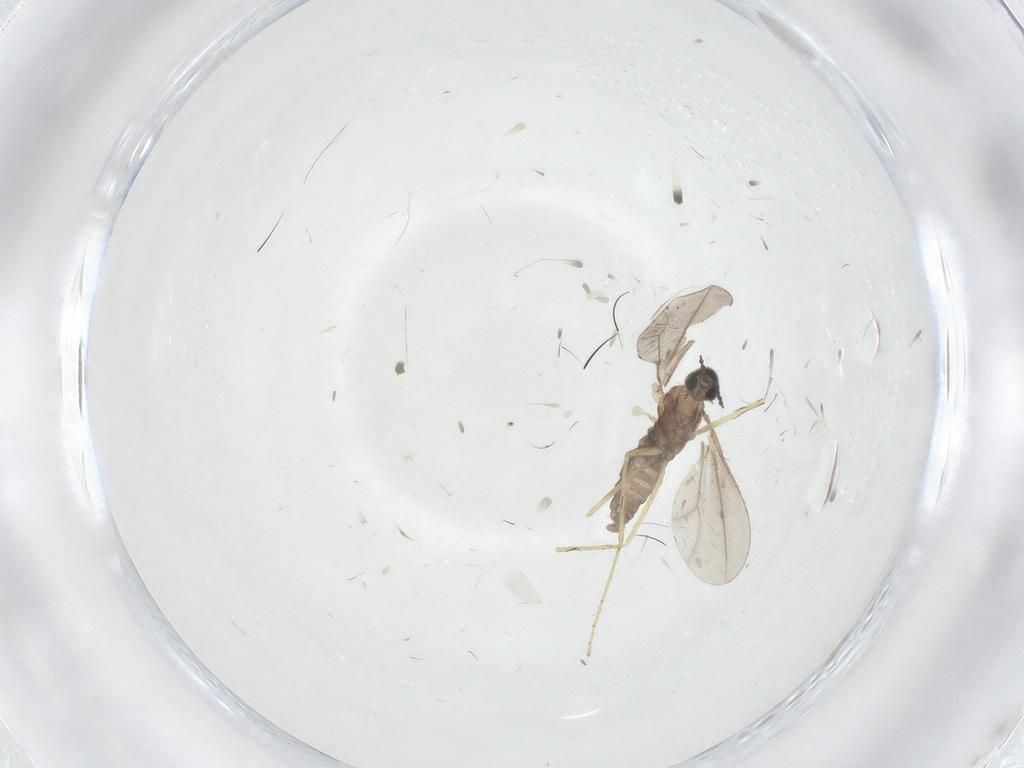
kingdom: Animalia
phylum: Arthropoda
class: Insecta
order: Diptera
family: Cecidomyiidae
